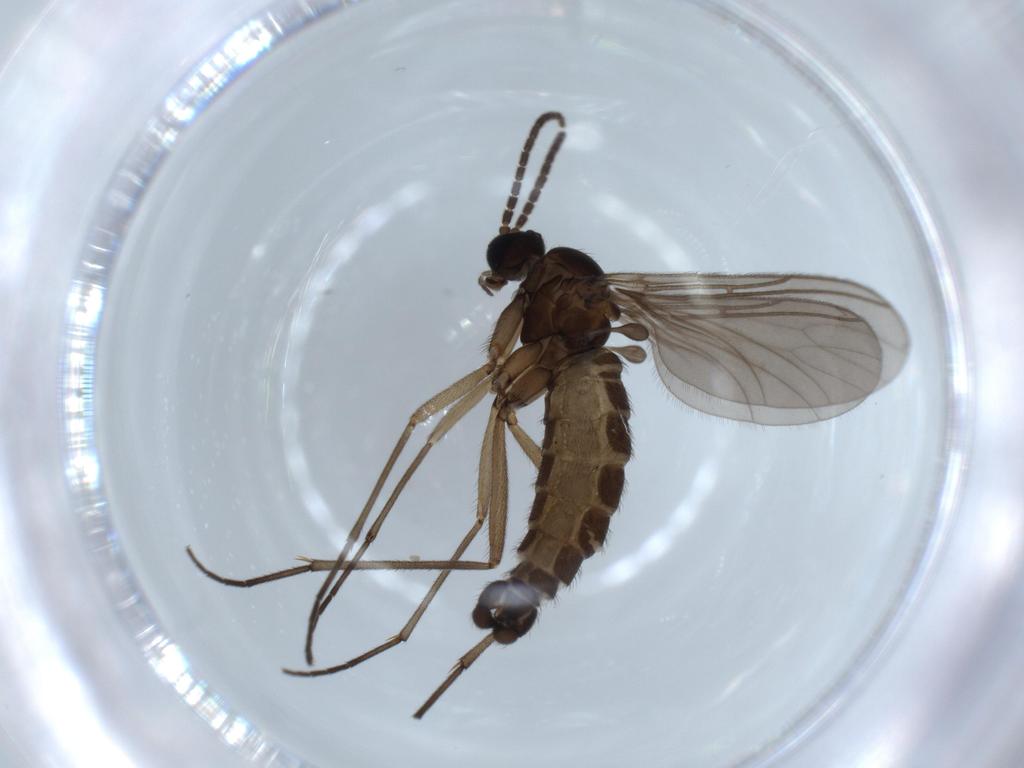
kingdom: Animalia
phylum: Arthropoda
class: Insecta
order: Diptera
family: Sciaridae
